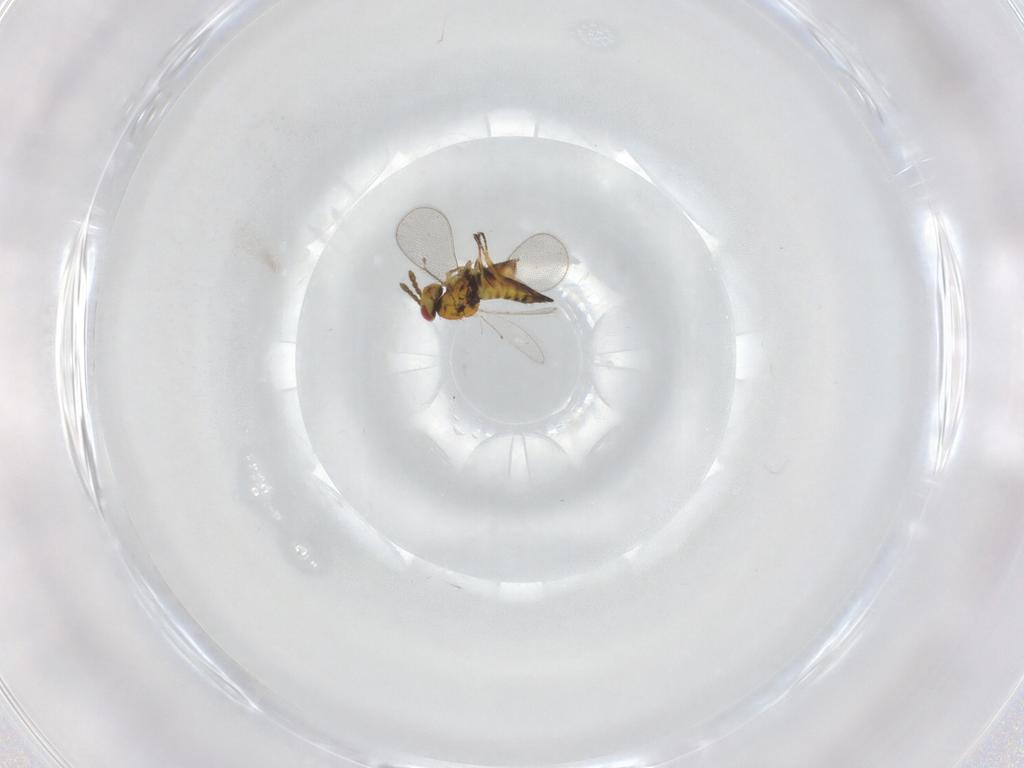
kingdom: Animalia
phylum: Arthropoda
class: Insecta
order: Hymenoptera
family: Eulophidae
